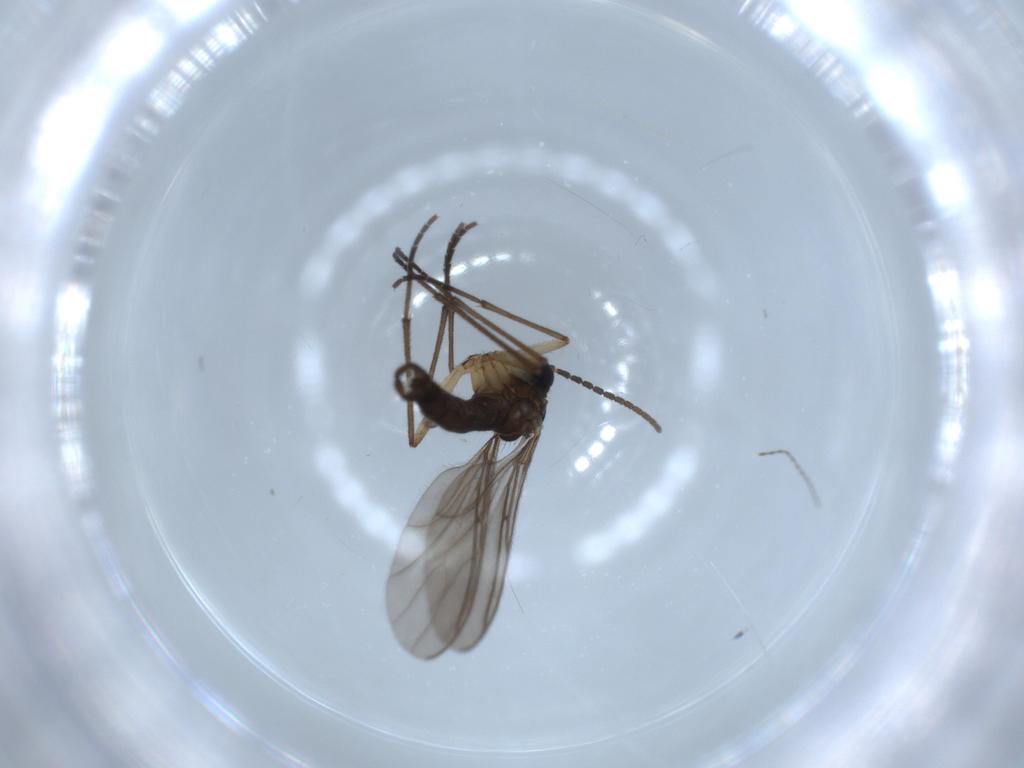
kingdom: Animalia
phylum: Arthropoda
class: Insecta
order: Diptera
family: Sciaridae
